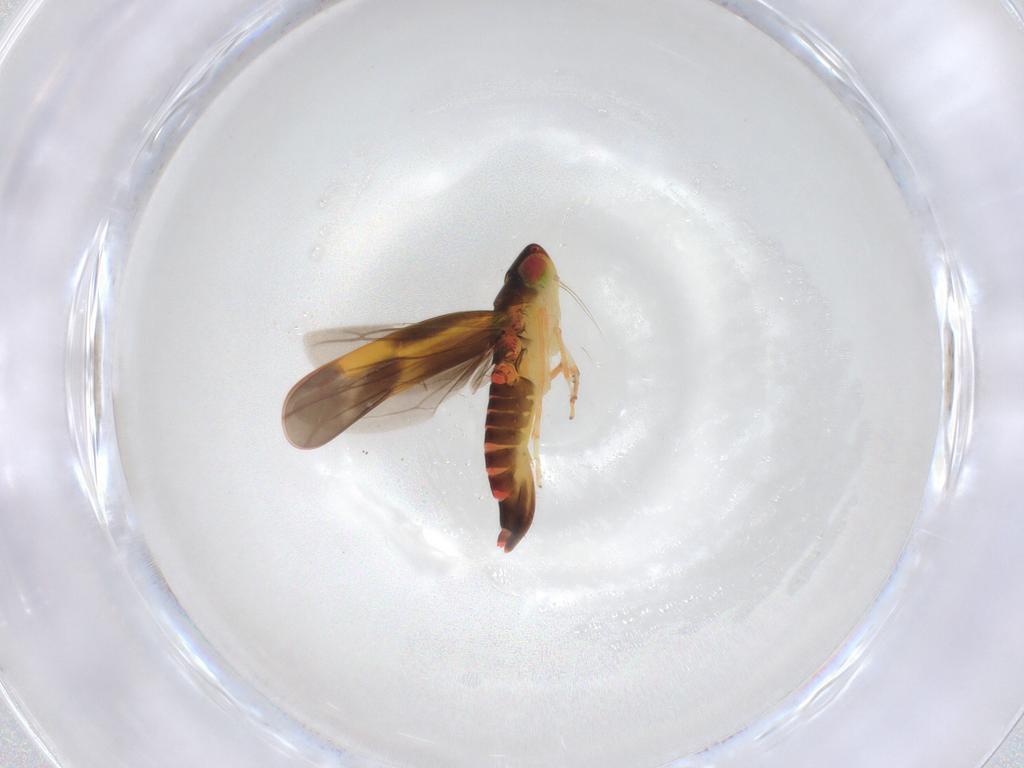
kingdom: Animalia
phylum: Arthropoda
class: Insecta
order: Hemiptera
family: Cicadellidae
